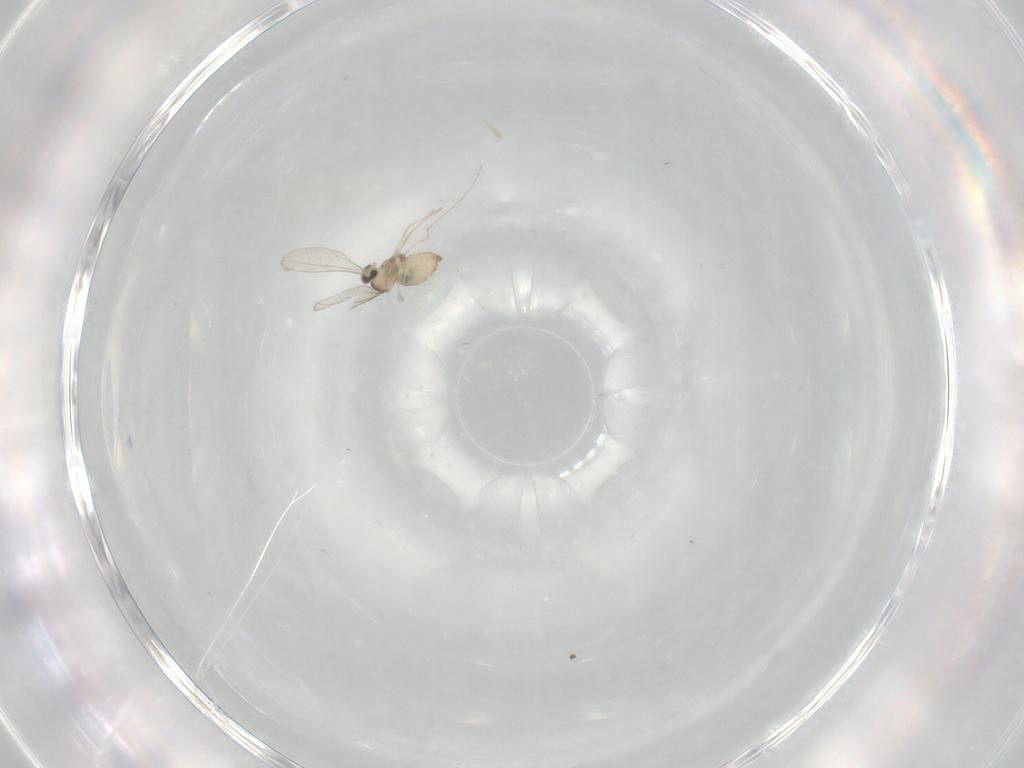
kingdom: Animalia
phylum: Arthropoda
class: Insecta
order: Diptera
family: Cecidomyiidae
